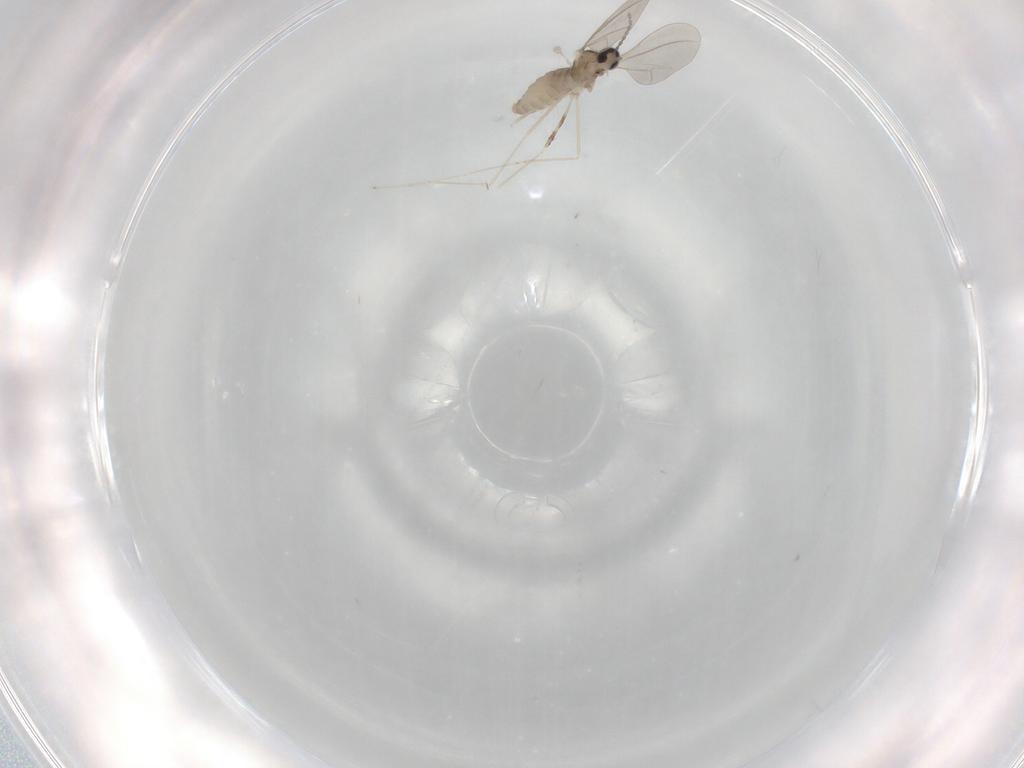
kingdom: Animalia
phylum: Arthropoda
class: Insecta
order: Diptera
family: Cecidomyiidae
